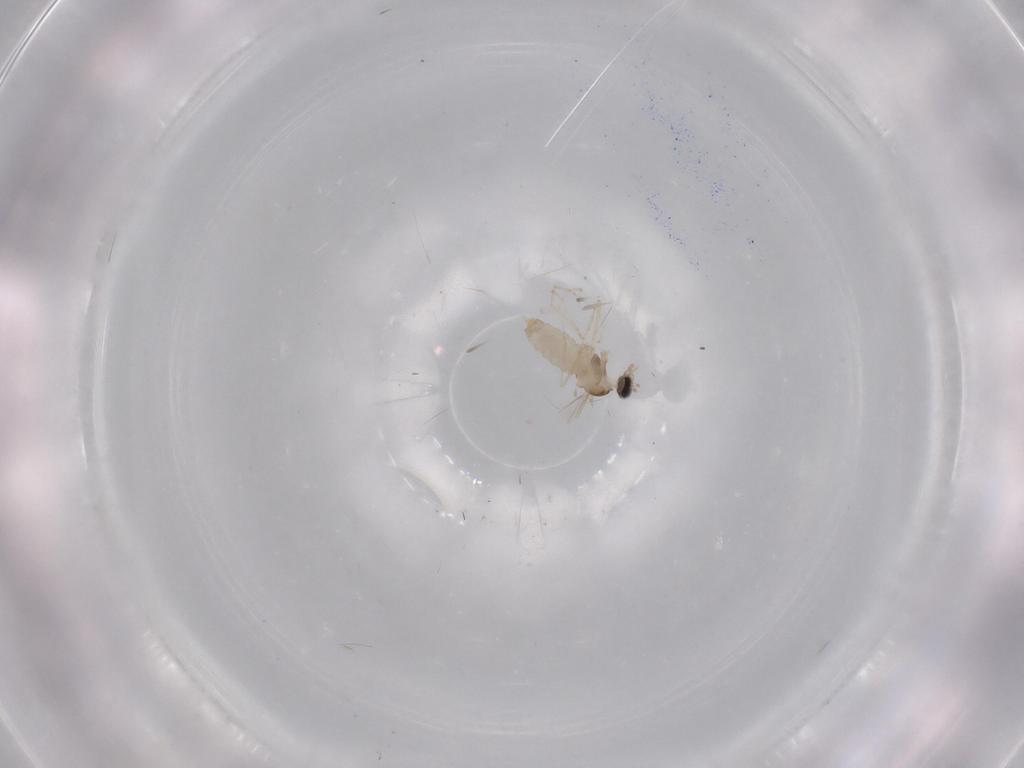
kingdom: Animalia
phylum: Arthropoda
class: Insecta
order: Diptera
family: Cecidomyiidae
